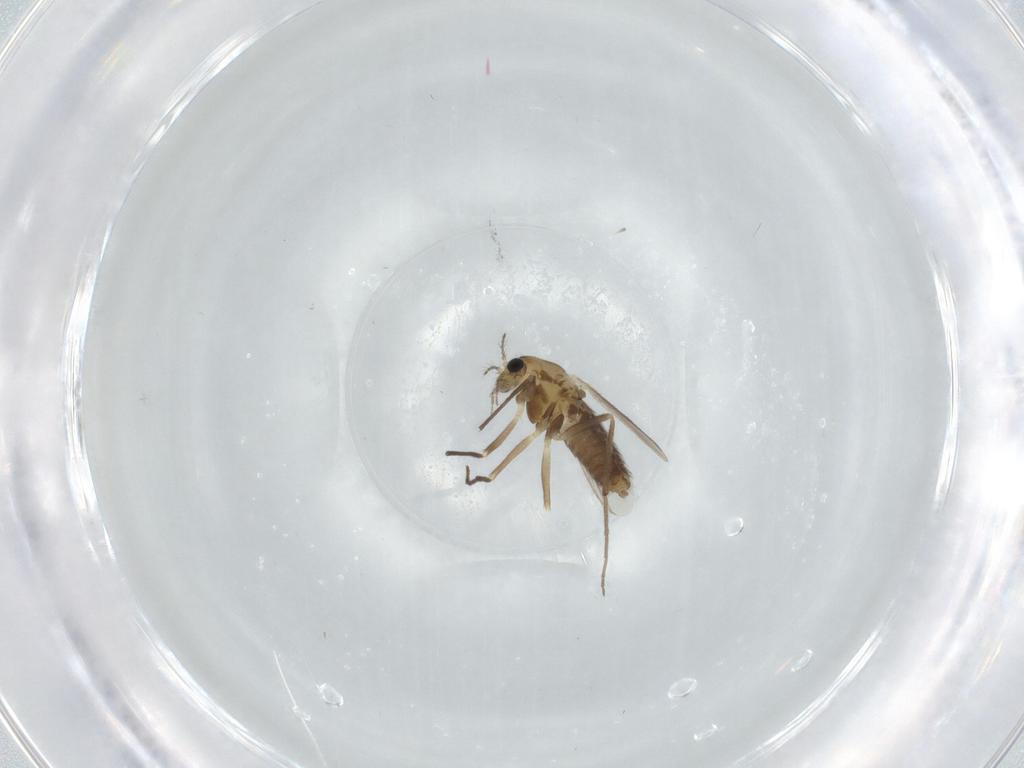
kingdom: Animalia
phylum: Arthropoda
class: Insecta
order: Diptera
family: Chironomidae
